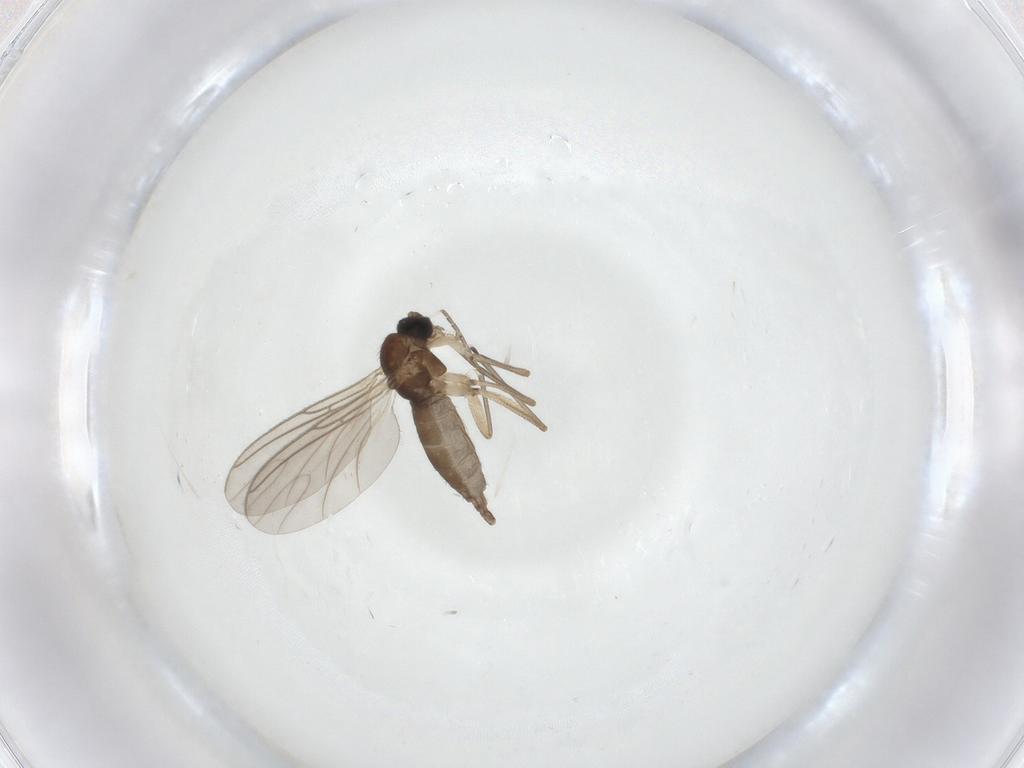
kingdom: Animalia
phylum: Arthropoda
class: Insecta
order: Diptera
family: Sciaridae
